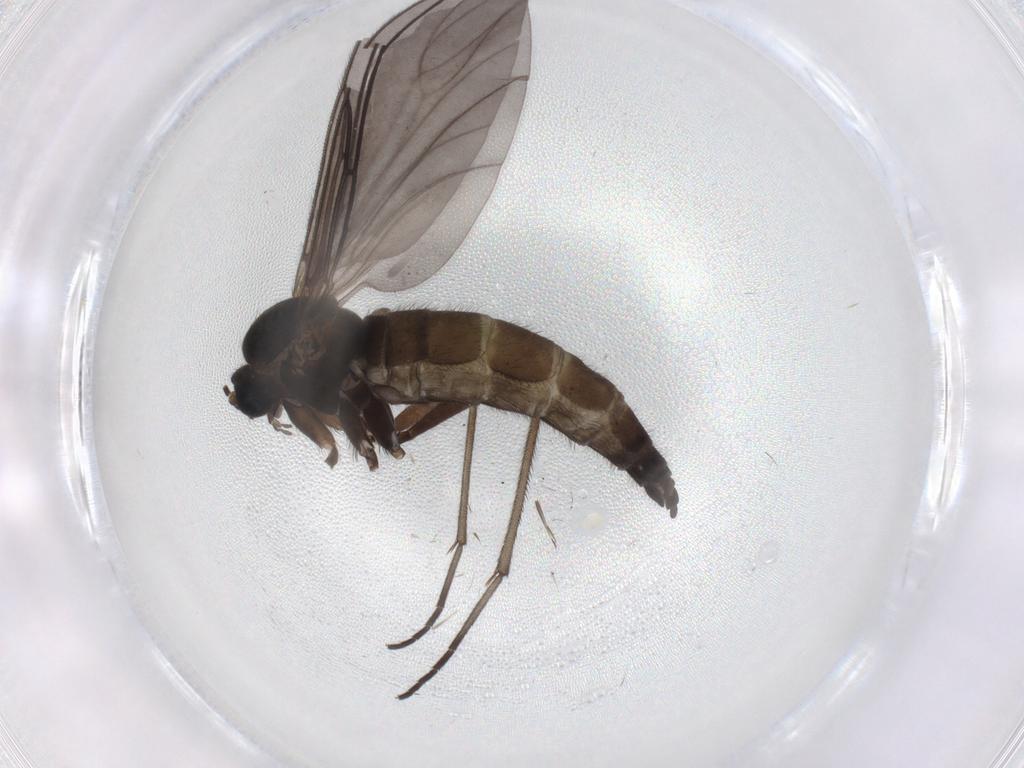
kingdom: Animalia
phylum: Arthropoda
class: Insecta
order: Diptera
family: Sciaridae
